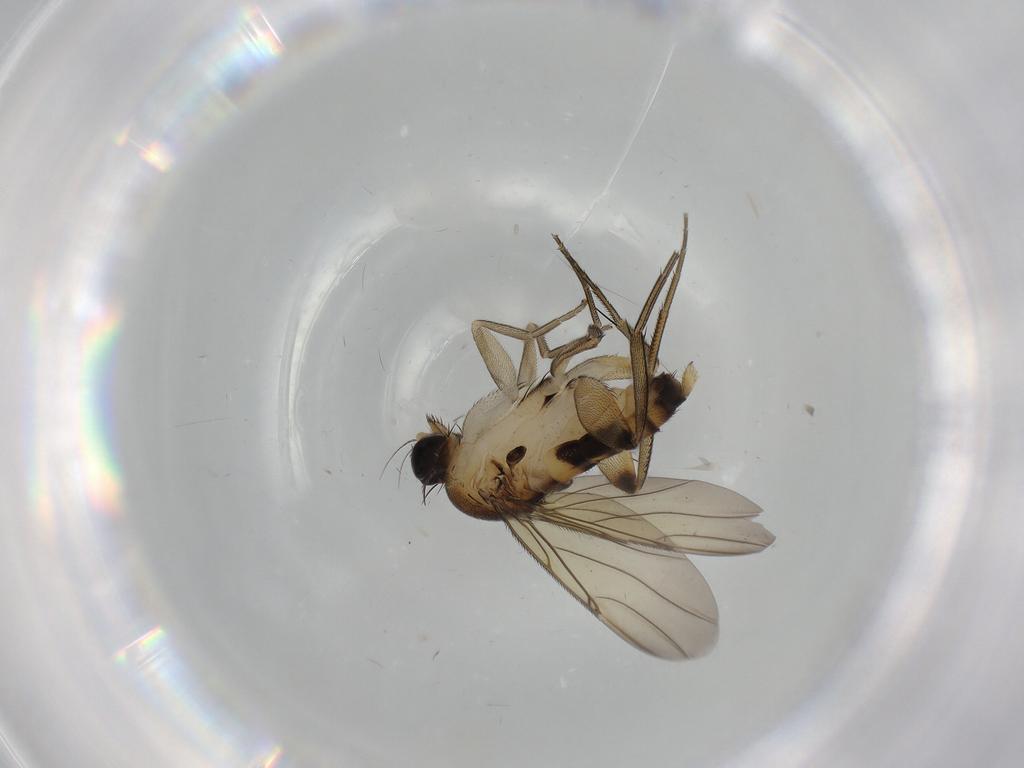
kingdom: Animalia
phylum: Arthropoda
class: Insecta
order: Diptera
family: Phoridae
